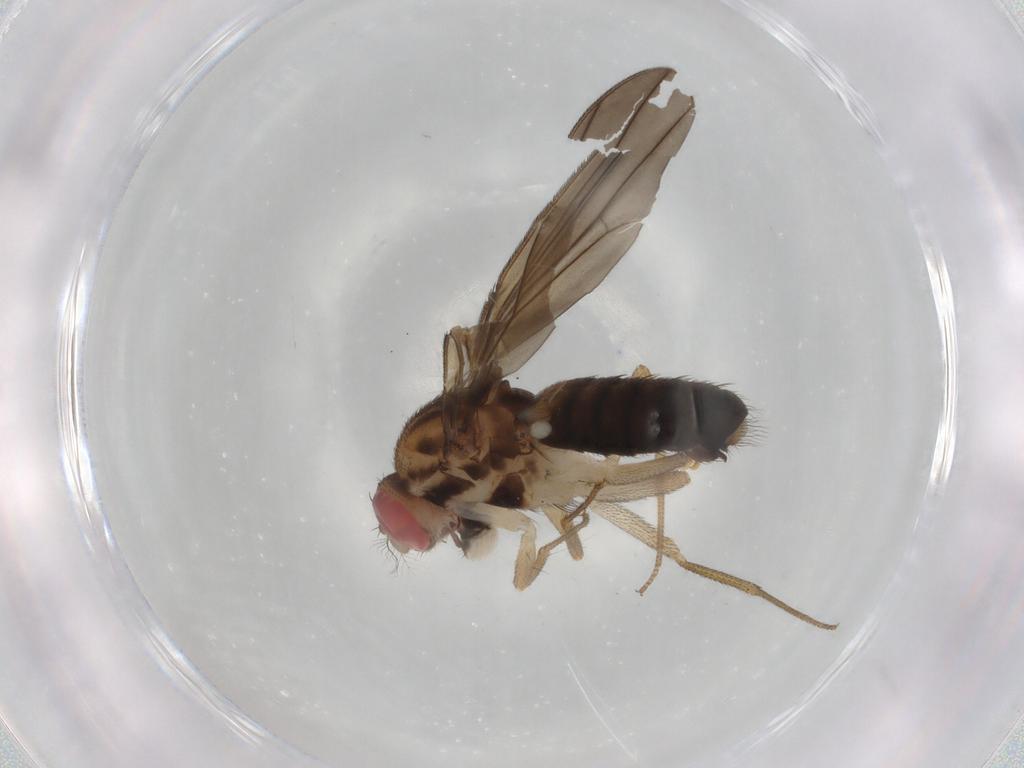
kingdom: Animalia
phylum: Arthropoda
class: Insecta
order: Diptera
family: Drosophilidae
